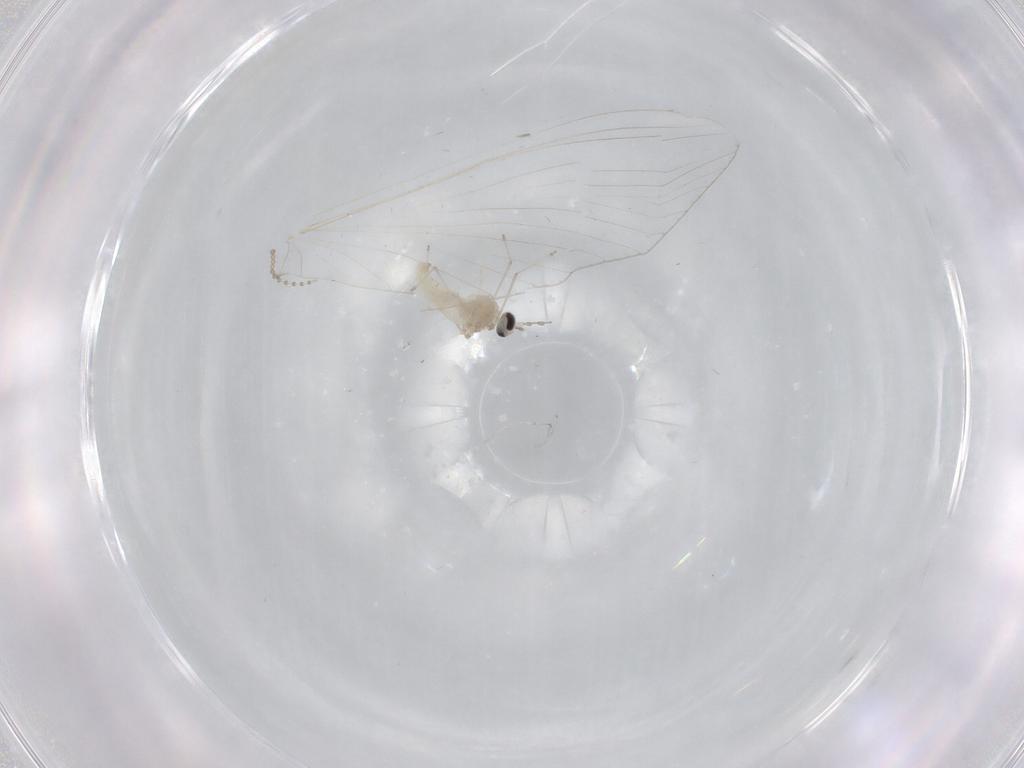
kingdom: Animalia
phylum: Arthropoda
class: Insecta
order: Diptera
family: Cecidomyiidae
